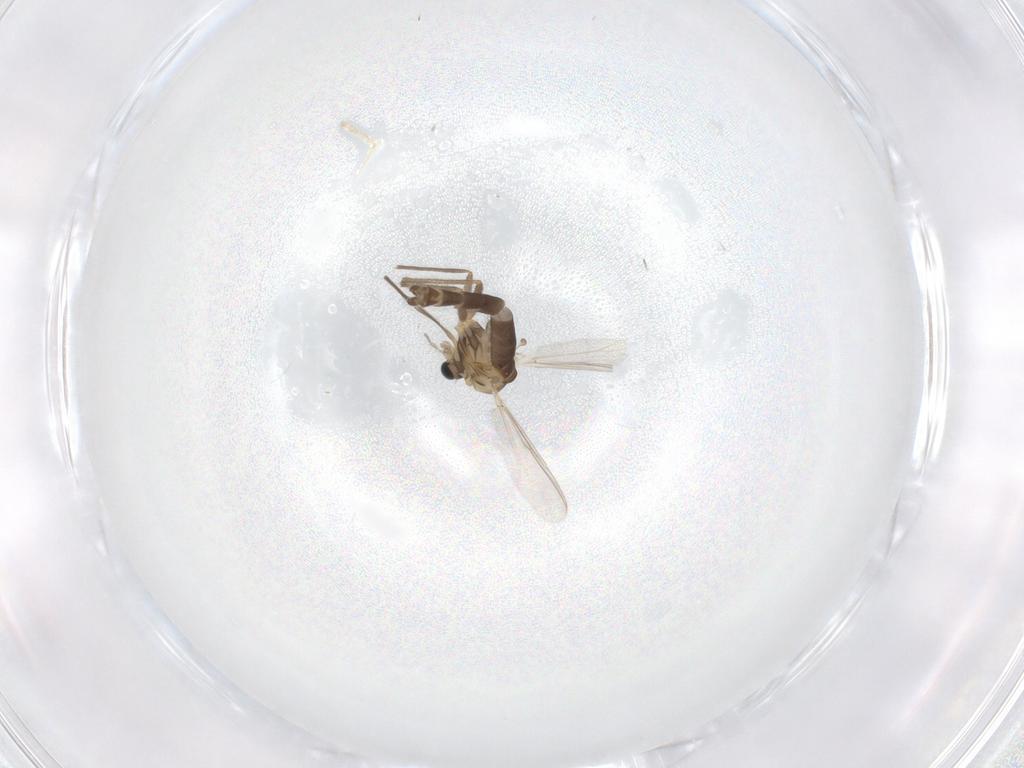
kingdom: Animalia
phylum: Arthropoda
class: Insecta
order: Diptera
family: Chironomidae
